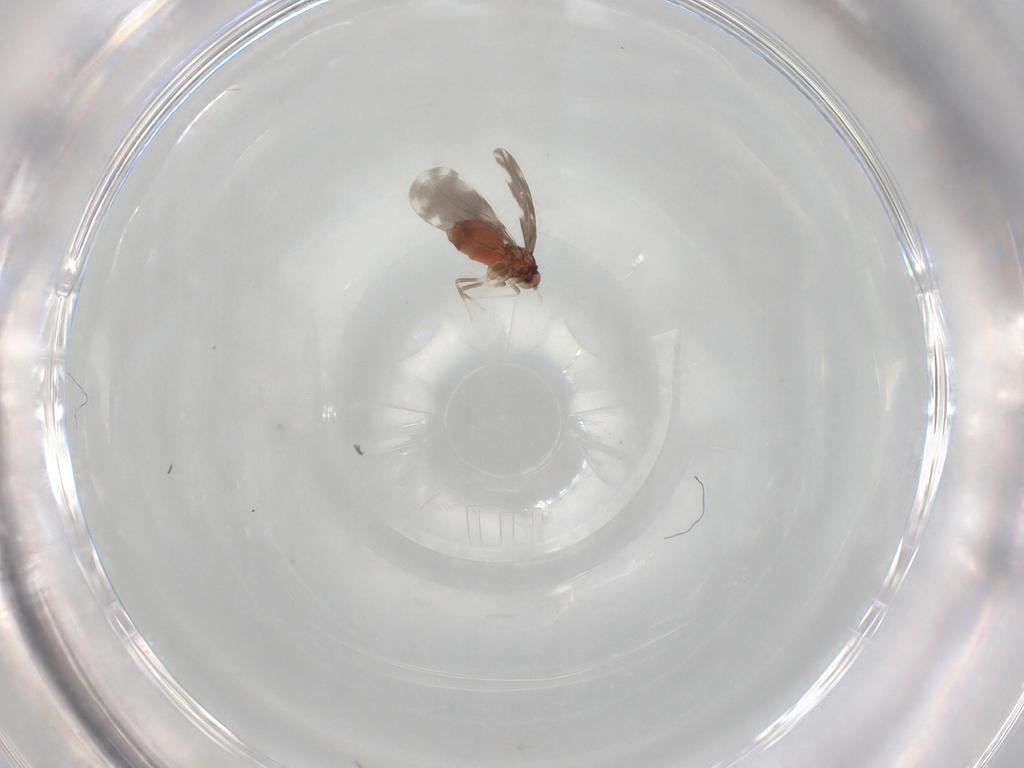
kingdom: Animalia
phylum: Arthropoda
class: Insecta
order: Hemiptera
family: Aleyrodidae
